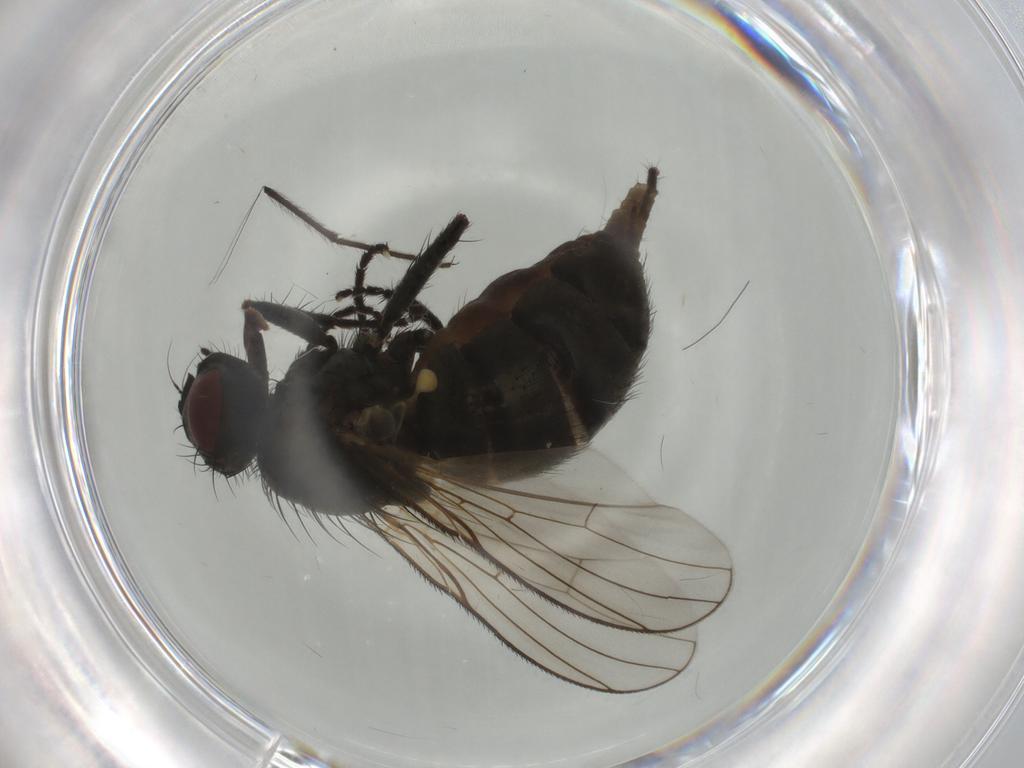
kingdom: Animalia
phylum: Arthropoda
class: Insecta
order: Diptera
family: Muscidae
